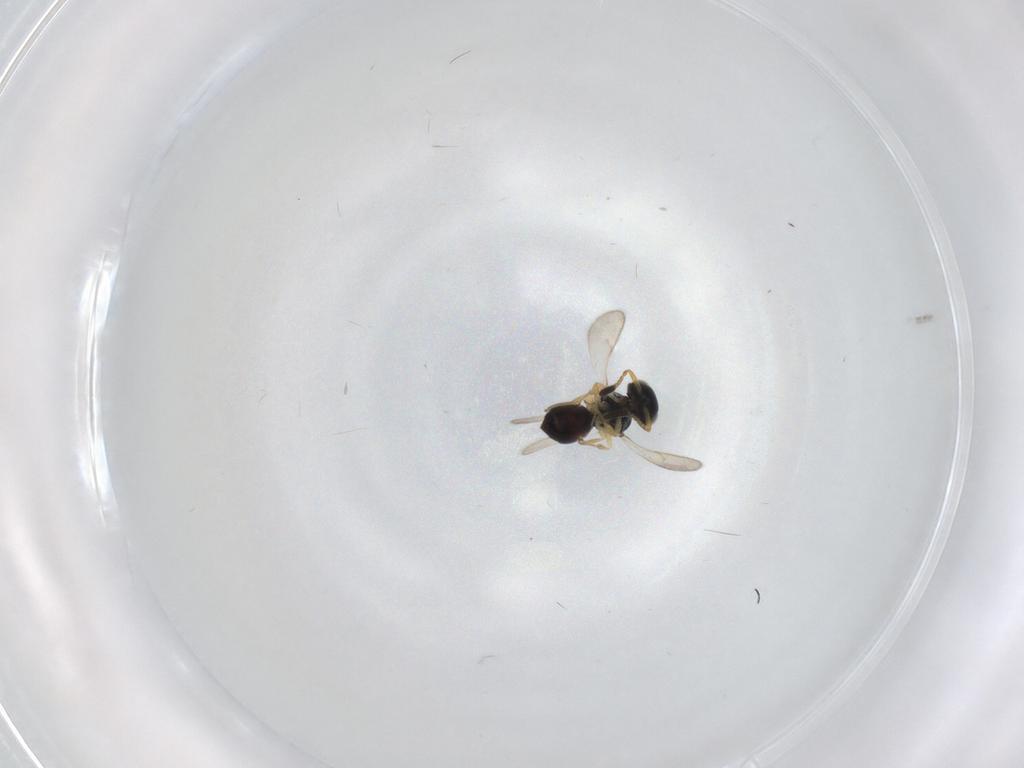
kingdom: Animalia
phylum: Arthropoda
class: Insecta
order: Hymenoptera
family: Scelionidae
